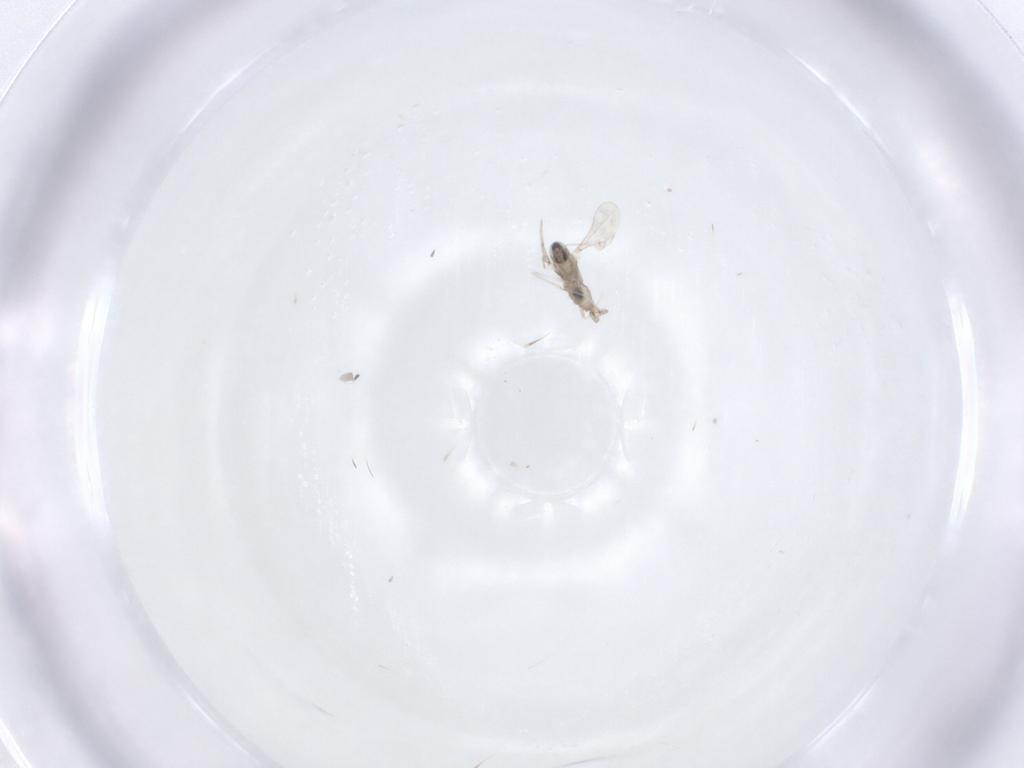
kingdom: Animalia
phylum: Arthropoda
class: Insecta
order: Diptera
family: Cecidomyiidae
